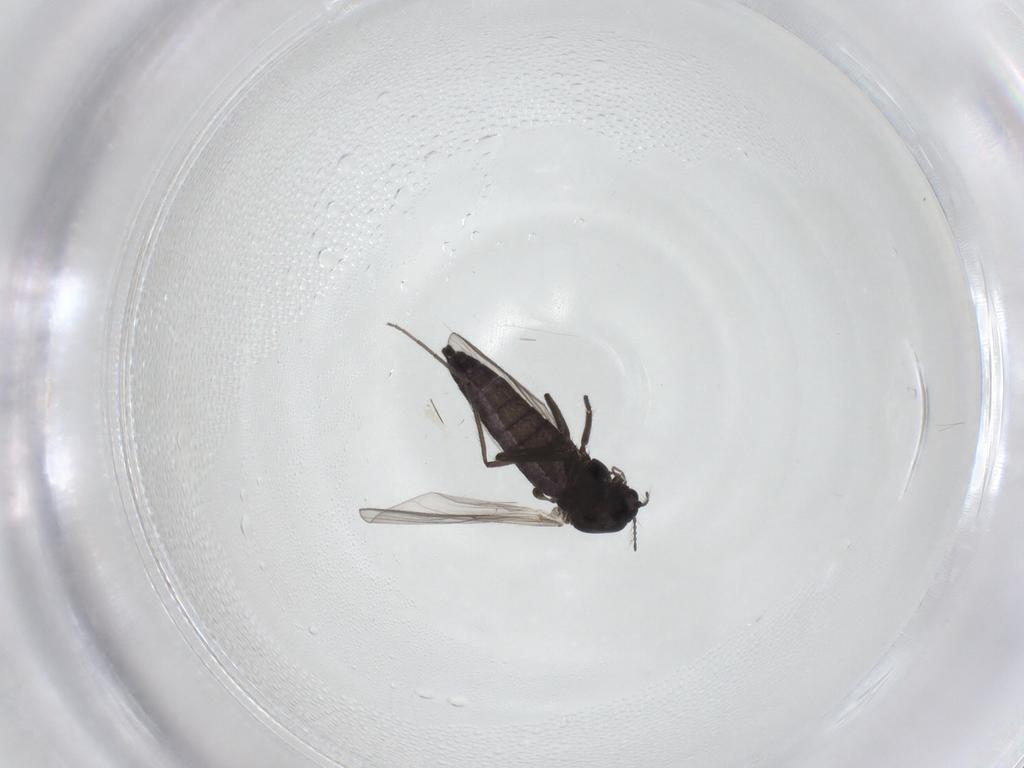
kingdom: Animalia
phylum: Arthropoda
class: Insecta
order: Diptera
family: Chironomidae
